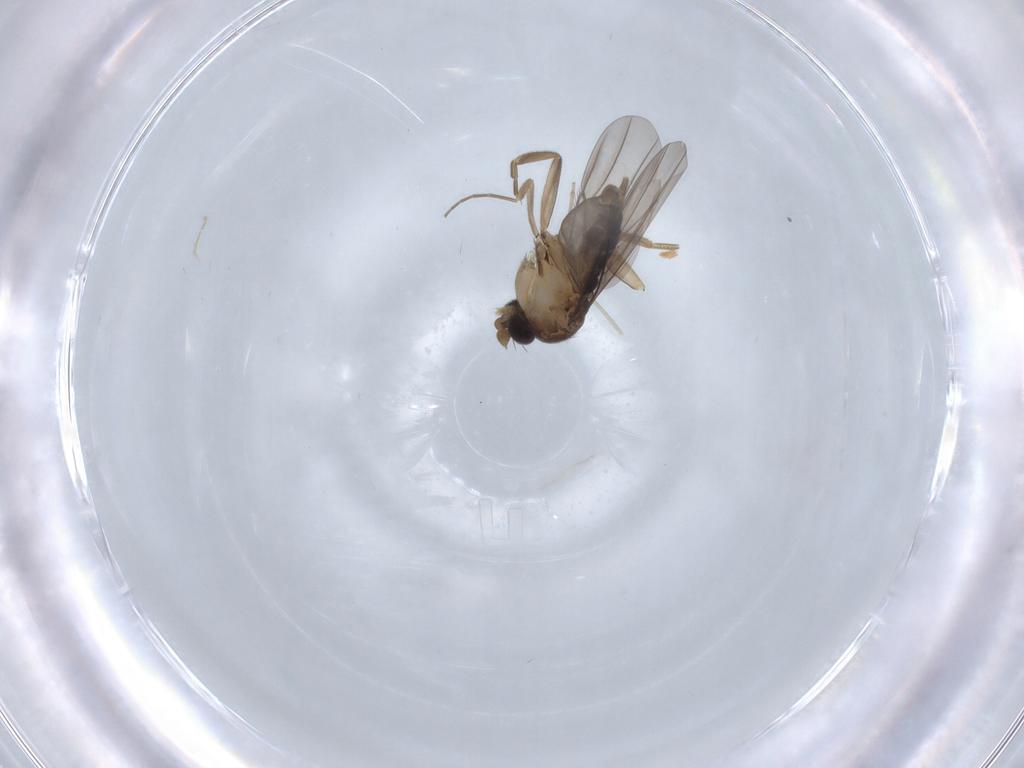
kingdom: Animalia
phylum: Arthropoda
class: Insecta
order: Diptera
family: Phoridae
